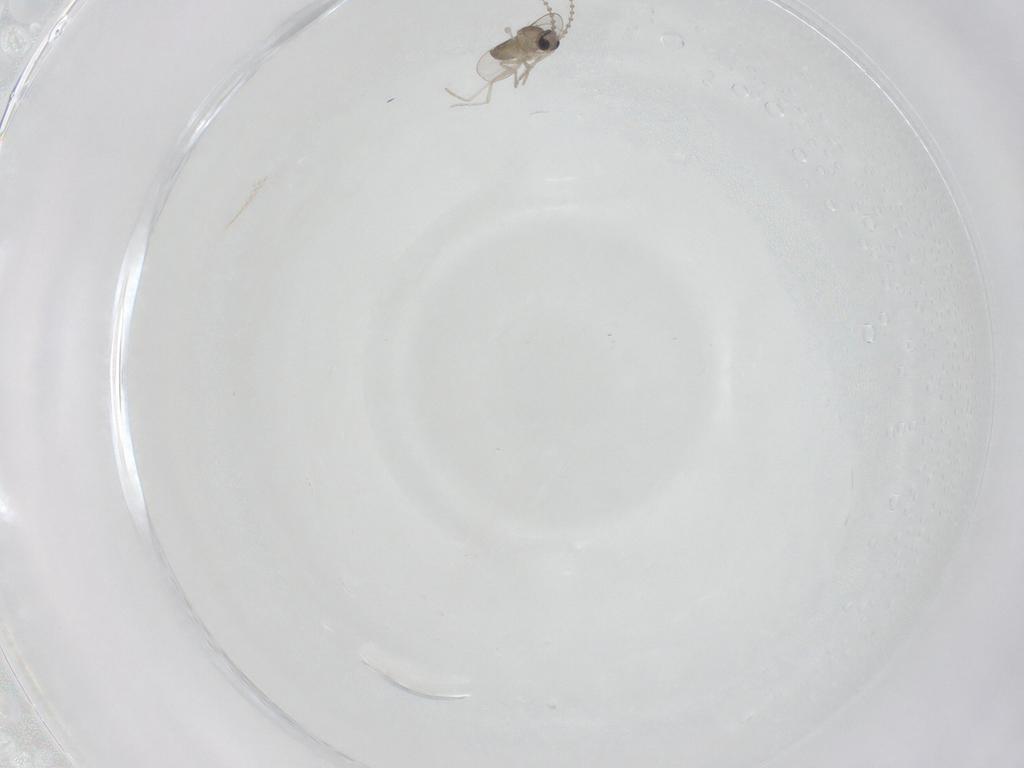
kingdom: Animalia
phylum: Arthropoda
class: Insecta
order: Diptera
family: Cecidomyiidae
